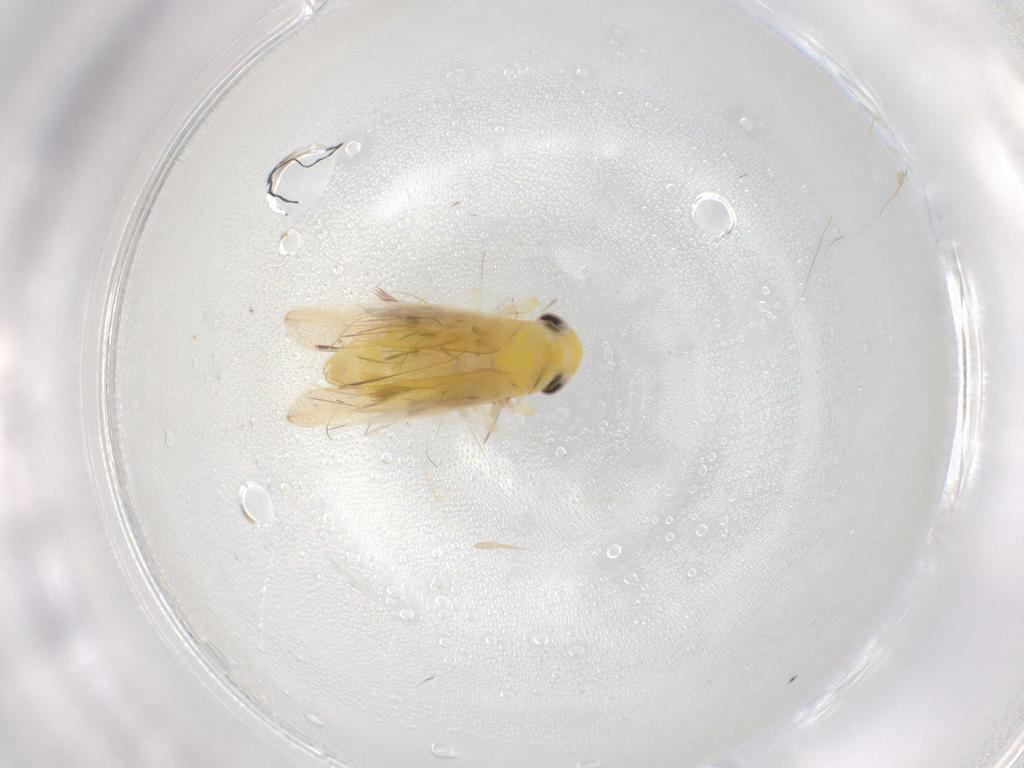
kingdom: Animalia
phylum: Arthropoda
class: Insecta
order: Hemiptera
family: Cicadellidae
